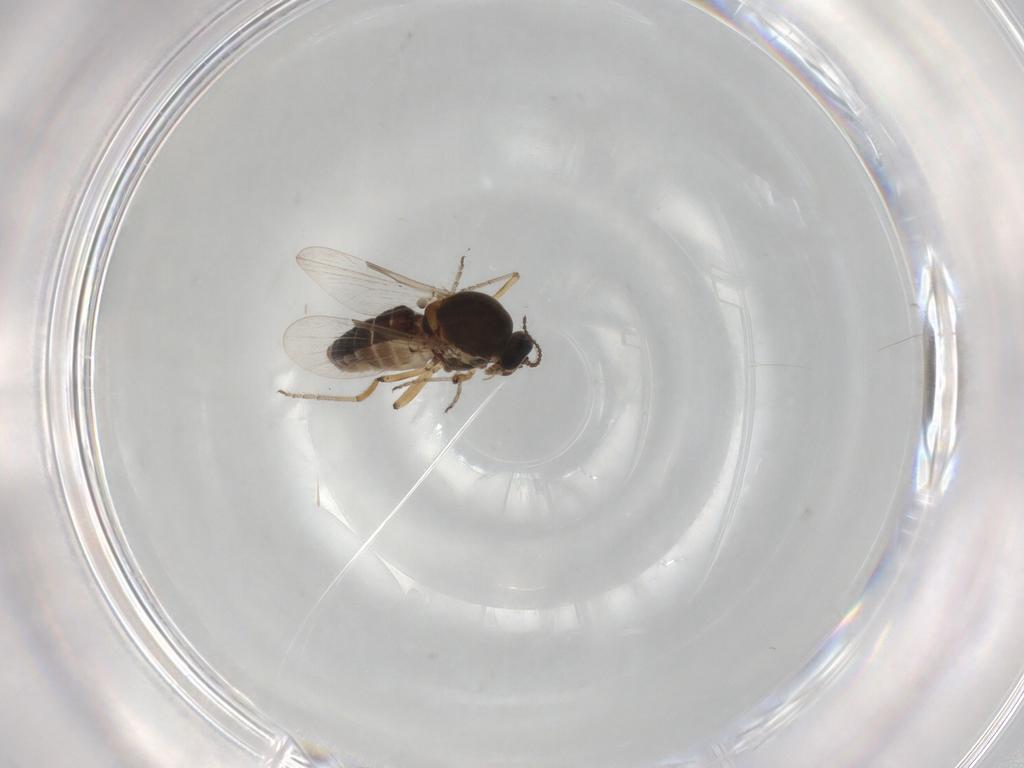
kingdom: Animalia
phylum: Arthropoda
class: Insecta
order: Diptera
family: Ceratopogonidae
